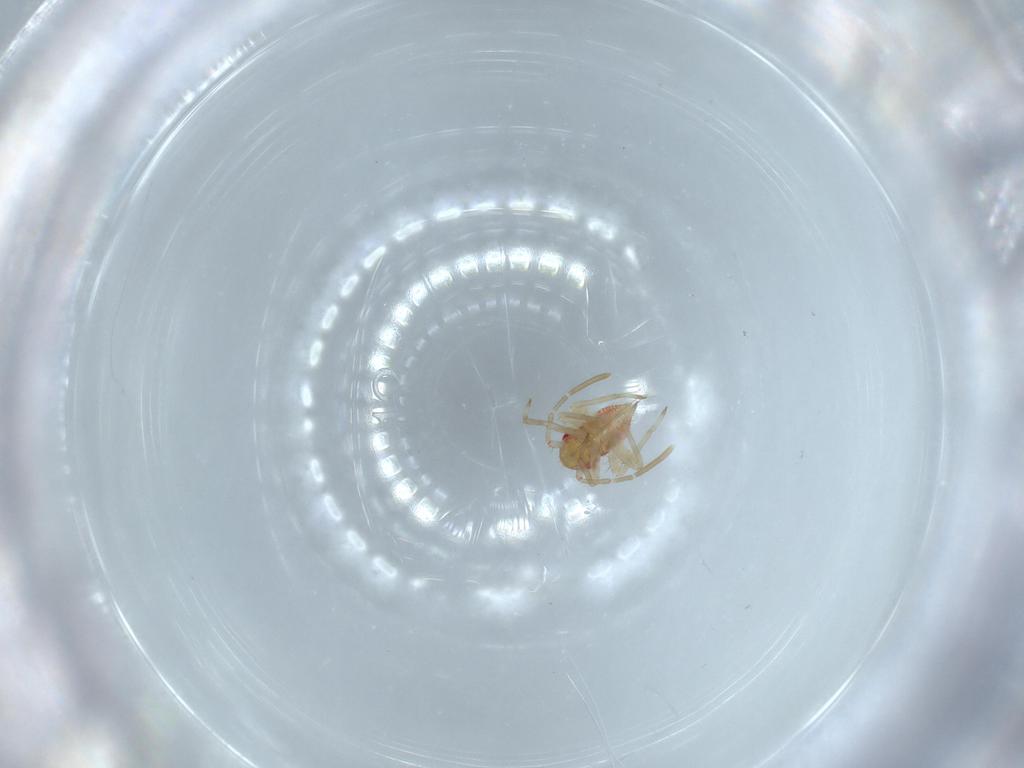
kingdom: Animalia
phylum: Arthropoda
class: Insecta
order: Hemiptera
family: Miridae
